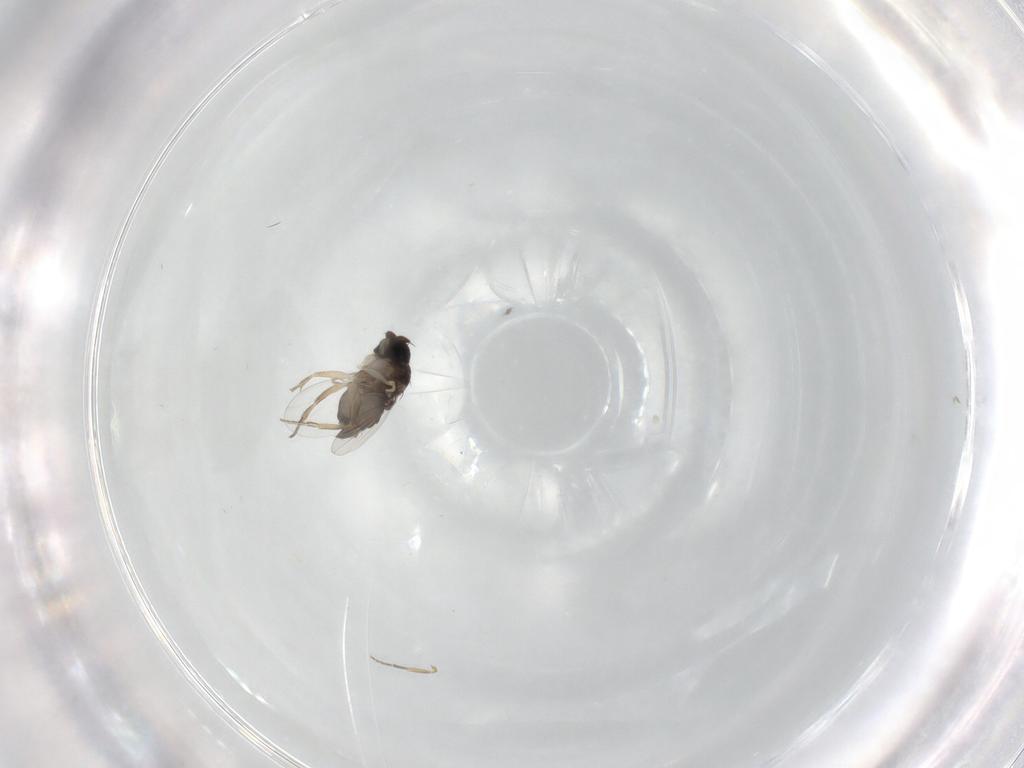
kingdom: Animalia
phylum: Arthropoda
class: Insecta
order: Diptera
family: Phoridae
